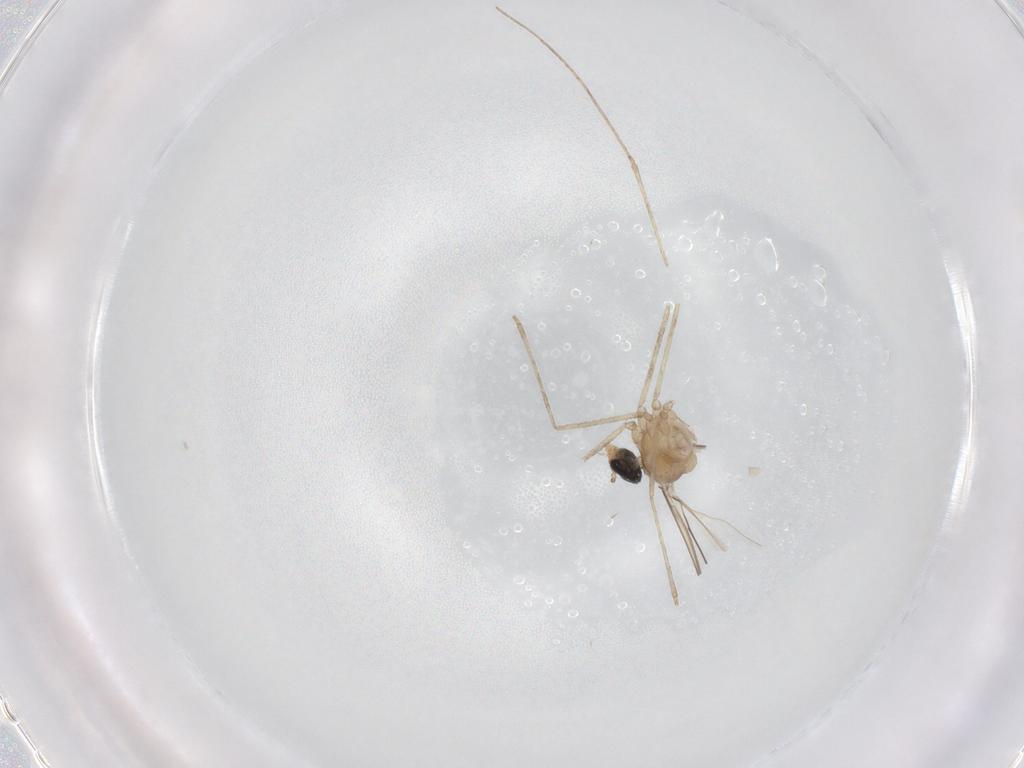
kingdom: Animalia
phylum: Arthropoda
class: Insecta
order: Diptera
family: Cecidomyiidae
